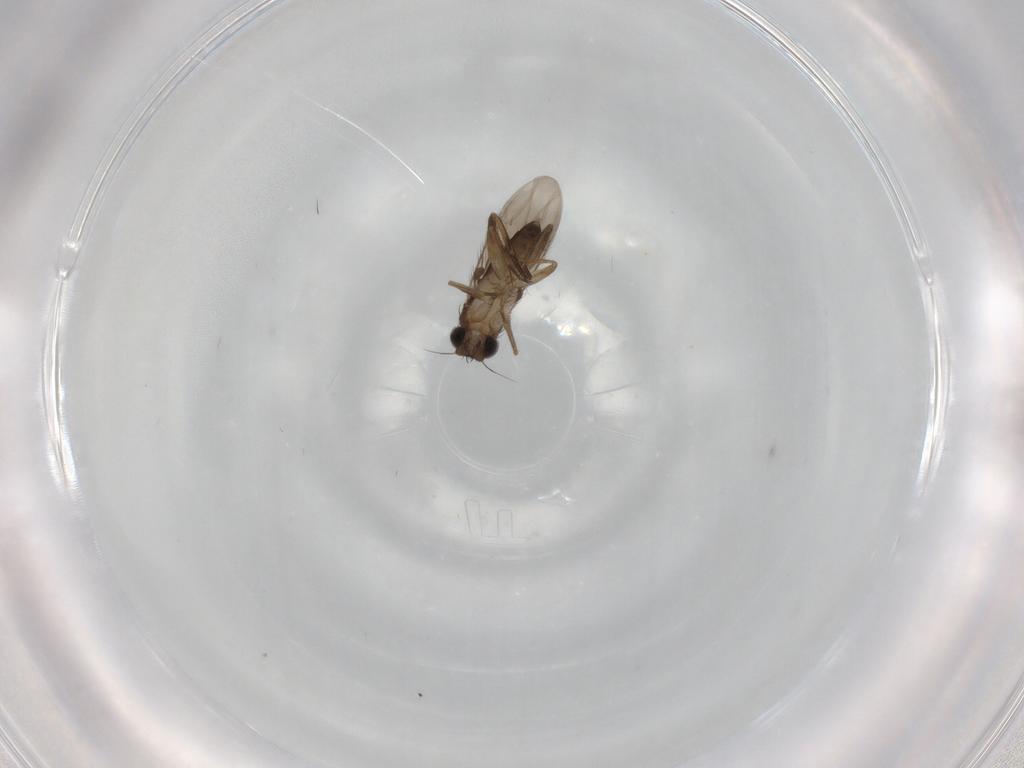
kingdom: Animalia
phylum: Arthropoda
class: Insecta
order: Diptera
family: Phoridae
